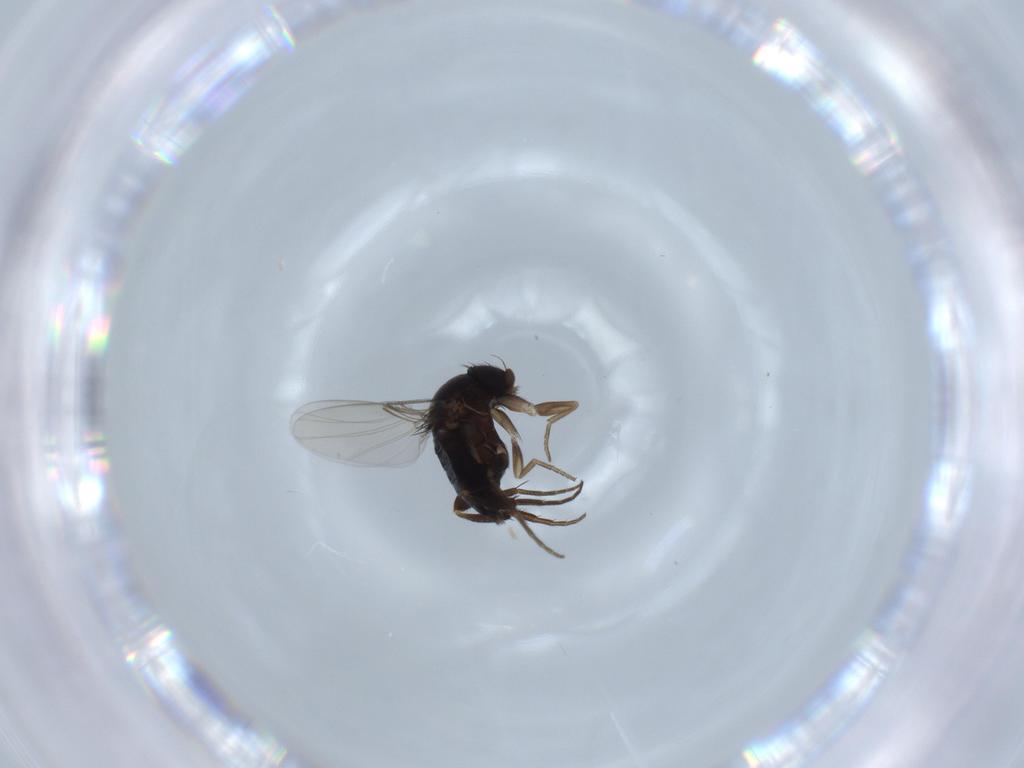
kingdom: Animalia
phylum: Arthropoda
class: Insecta
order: Diptera
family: Phoridae
